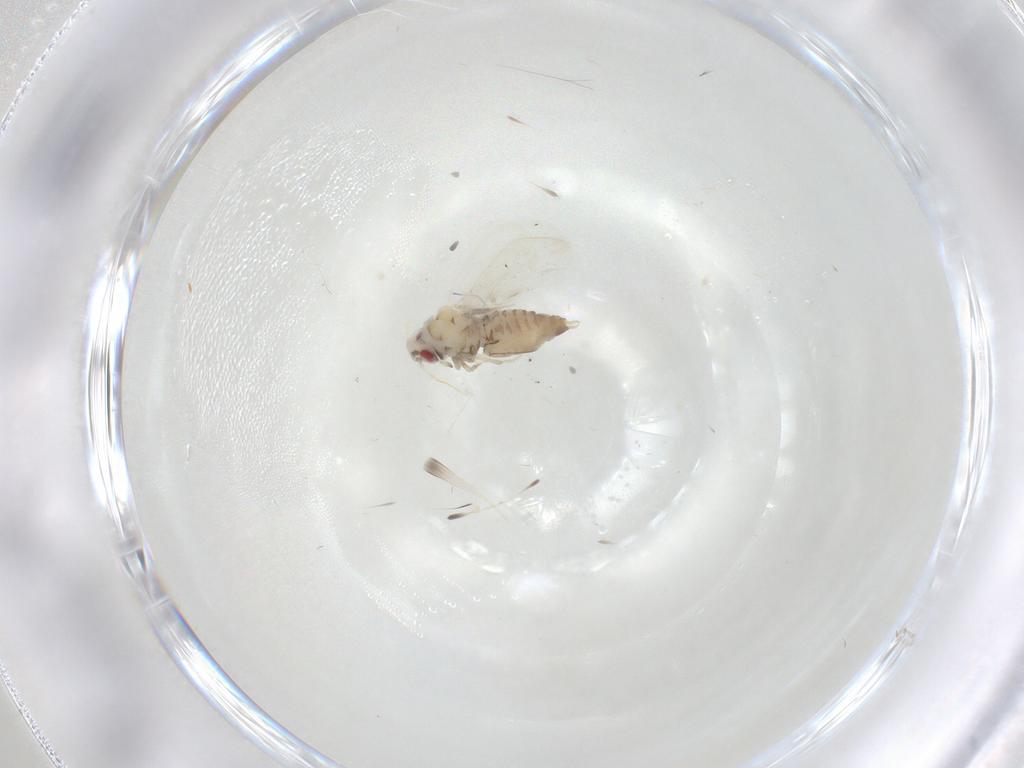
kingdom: Animalia
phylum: Arthropoda
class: Insecta
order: Hemiptera
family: Aleyrodidae
